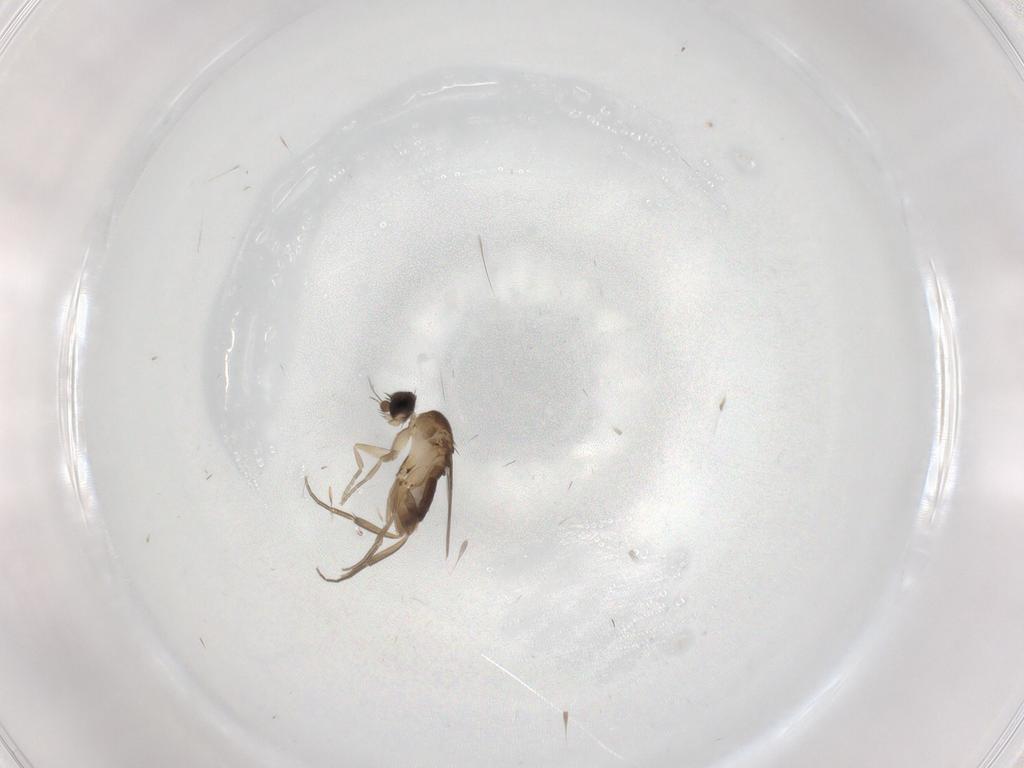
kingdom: Animalia
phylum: Arthropoda
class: Insecta
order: Diptera
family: Phoridae
